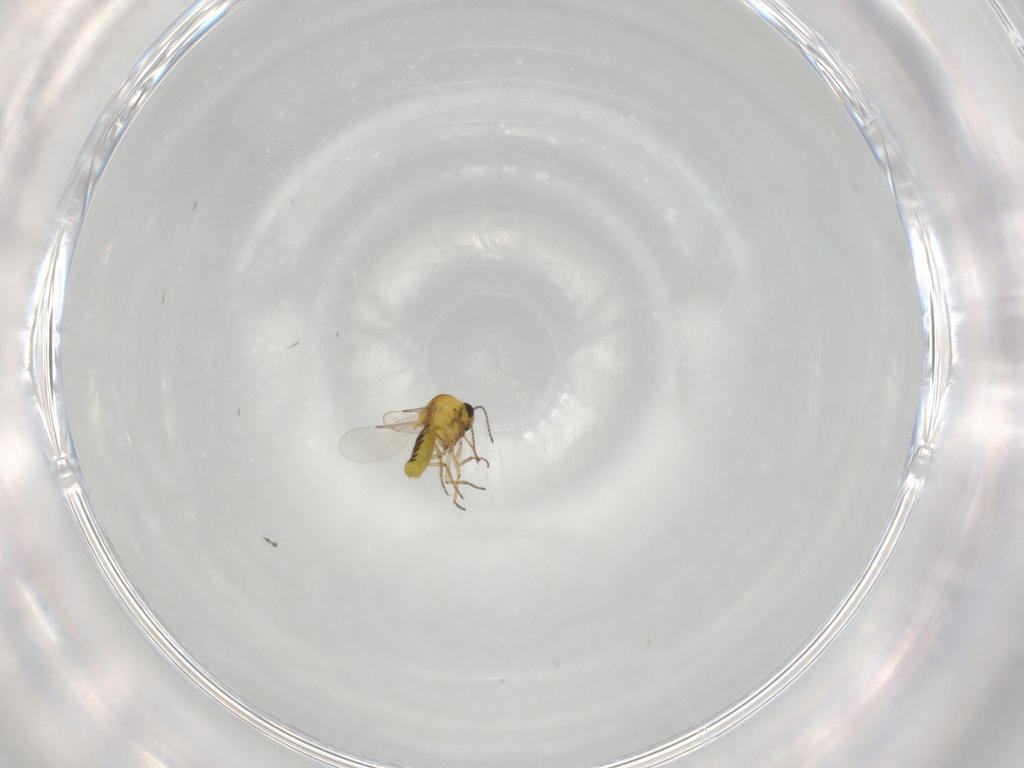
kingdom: Animalia
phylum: Arthropoda
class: Insecta
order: Diptera
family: Ceratopogonidae
